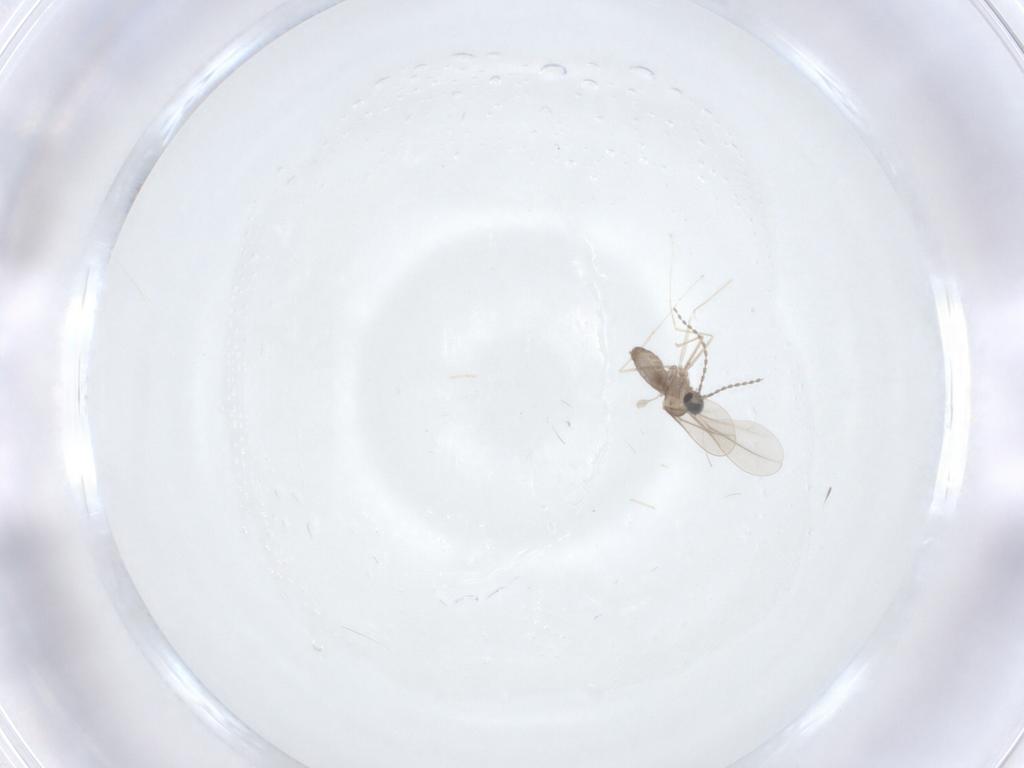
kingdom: Animalia
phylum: Arthropoda
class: Insecta
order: Diptera
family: Cecidomyiidae
